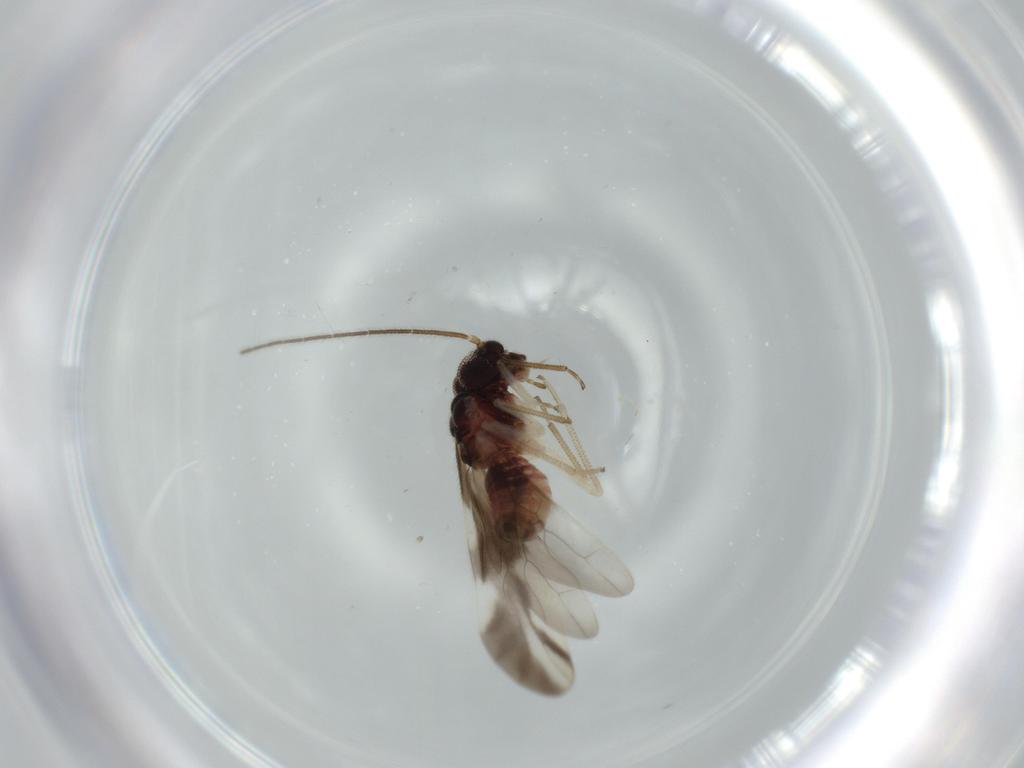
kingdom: Animalia
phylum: Arthropoda
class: Insecta
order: Psocodea
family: Caeciliusidae
